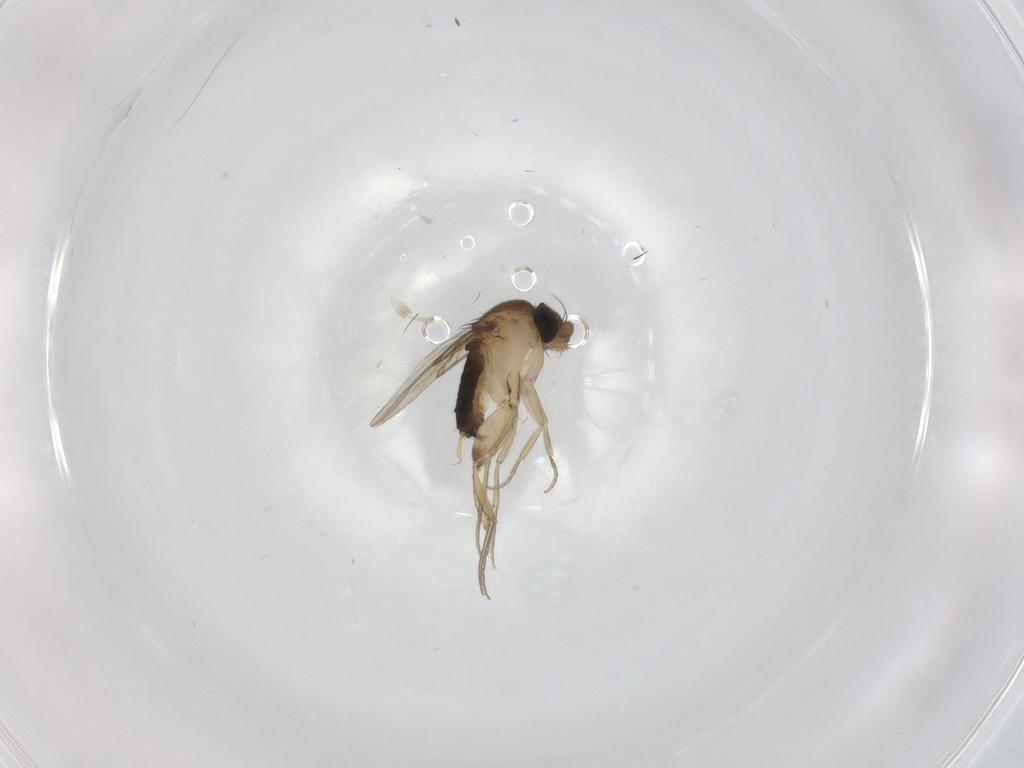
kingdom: Animalia
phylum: Arthropoda
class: Insecta
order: Diptera
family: Phoridae
